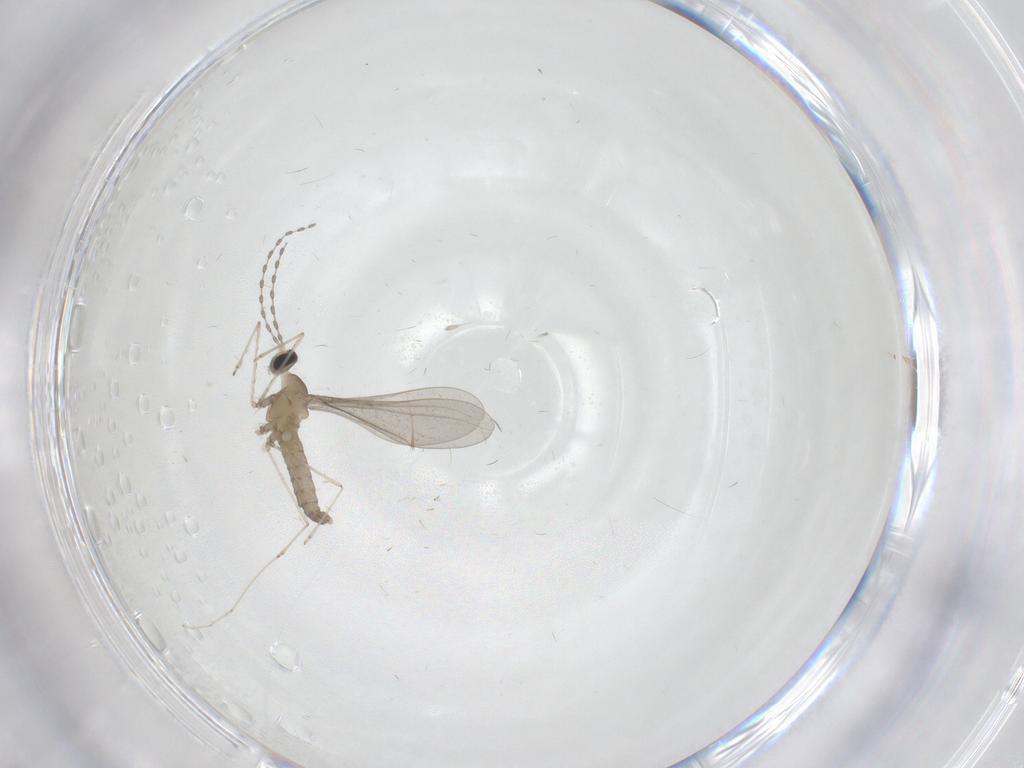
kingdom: Animalia
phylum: Arthropoda
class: Insecta
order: Diptera
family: Cecidomyiidae
